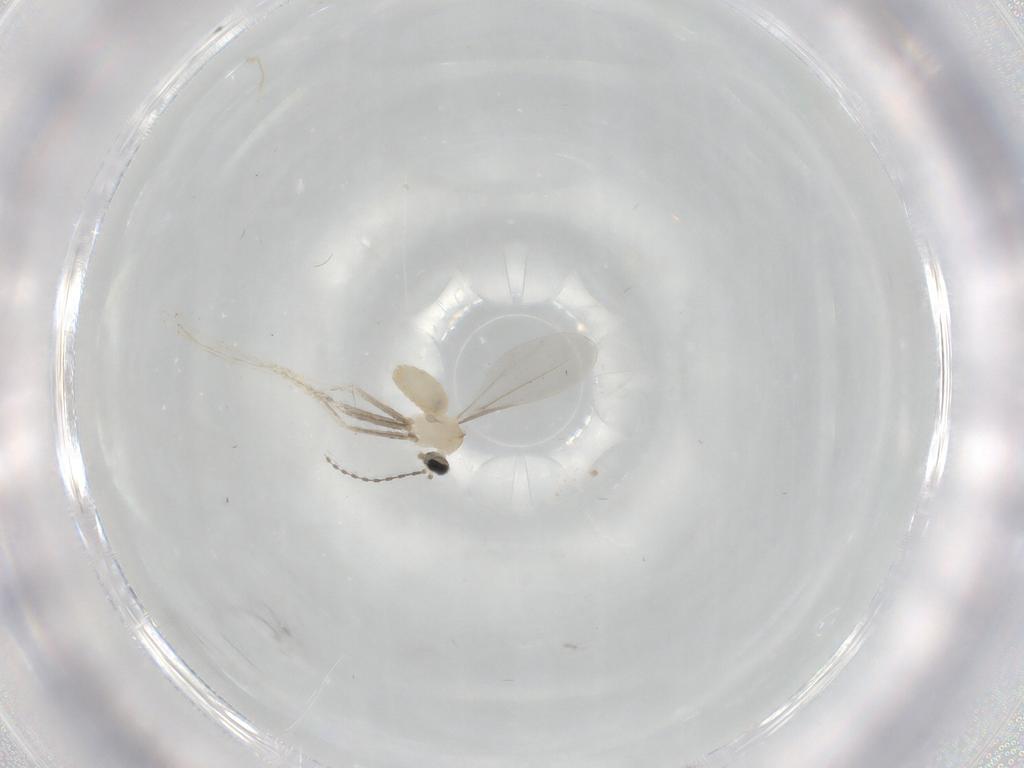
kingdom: Animalia
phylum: Arthropoda
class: Insecta
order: Diptera
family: Cecidomyiidae
